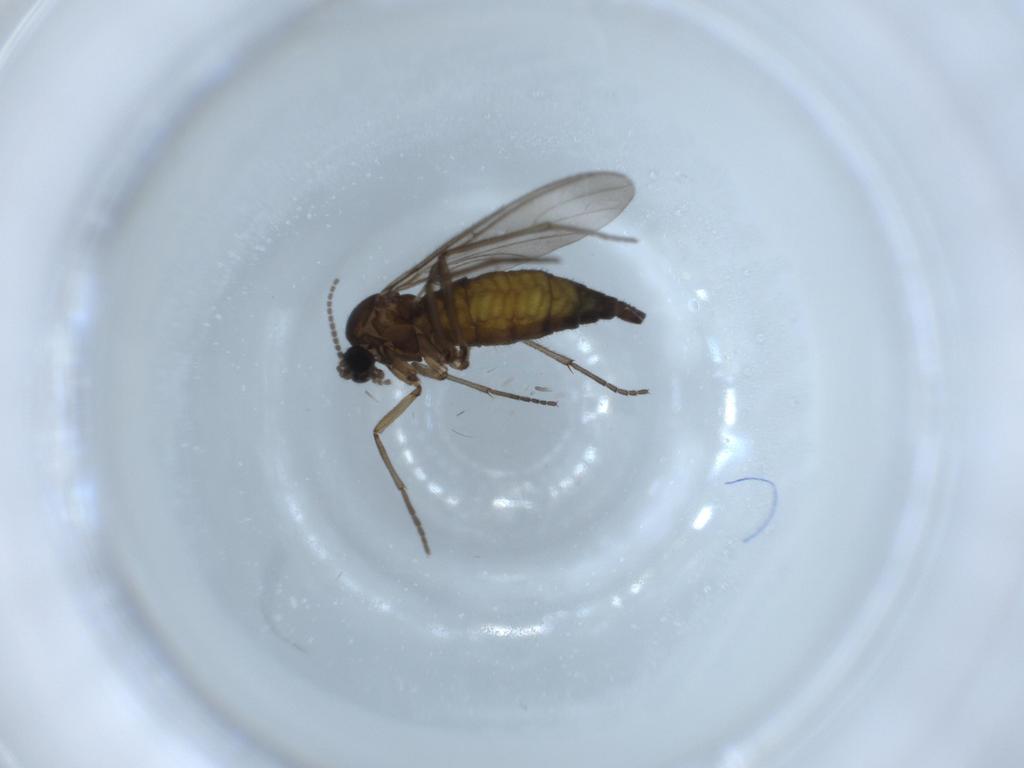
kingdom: Animalia
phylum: Arthropoda
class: Insecta
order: Diptera
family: Sciaridae
